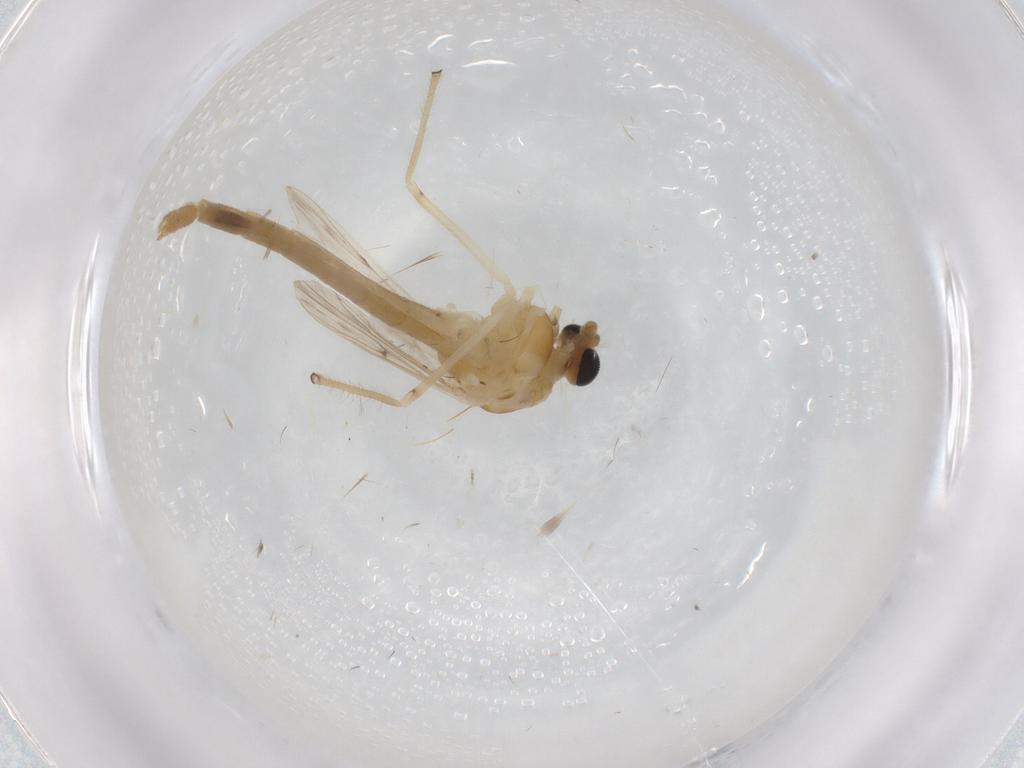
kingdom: Animalia
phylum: Arthropoda
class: Insecta
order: Diptera
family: Chironomidae
